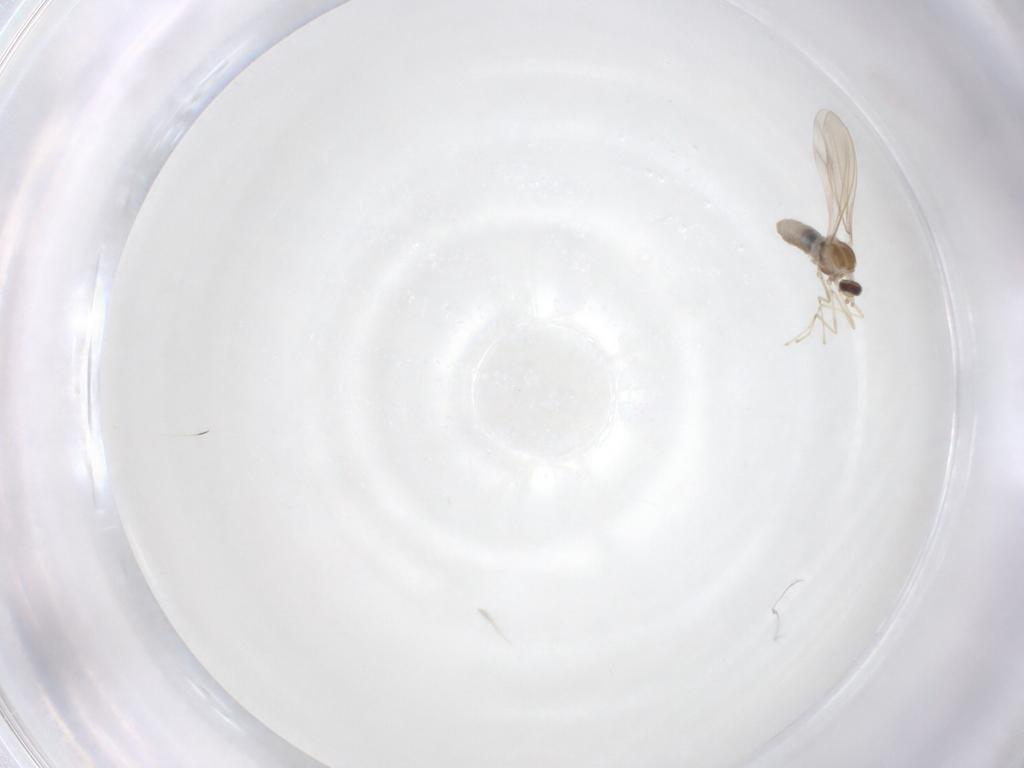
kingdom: Animalia
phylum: Arthropoda
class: Insecta
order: Diptera
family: Cecidomyiidae
